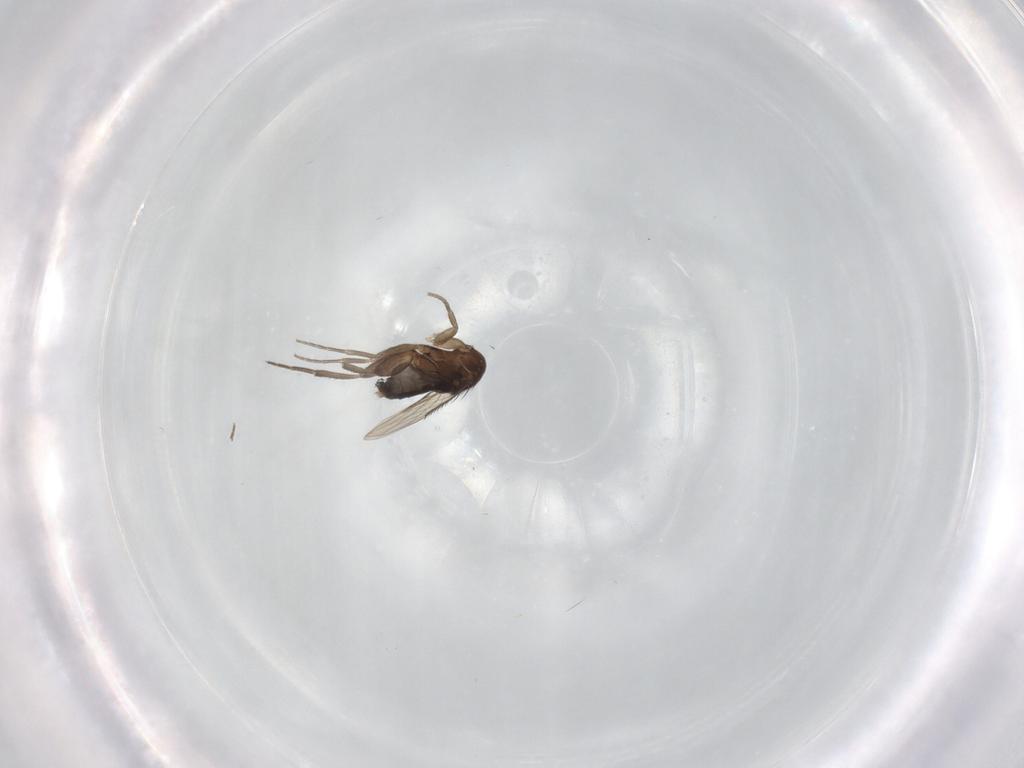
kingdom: Animalia
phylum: Arthropoda
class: Insecta
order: Diptera
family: Phoridae
